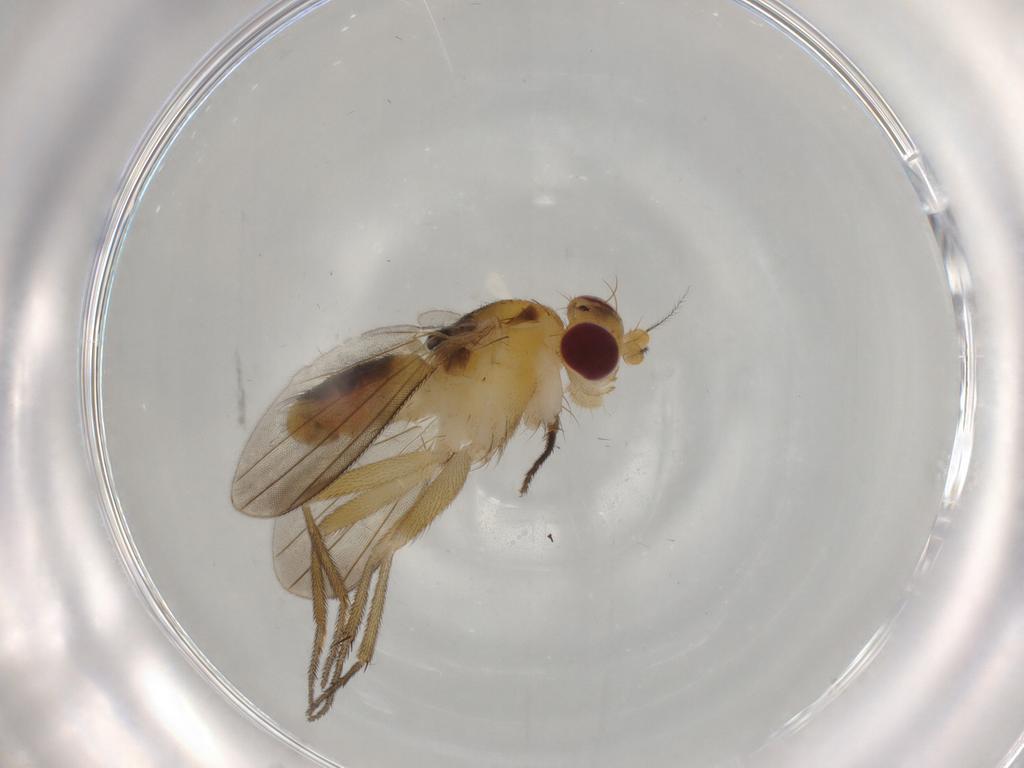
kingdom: Animalia
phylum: Arthropoda
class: Insecta
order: Diptera
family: Clusiidae
